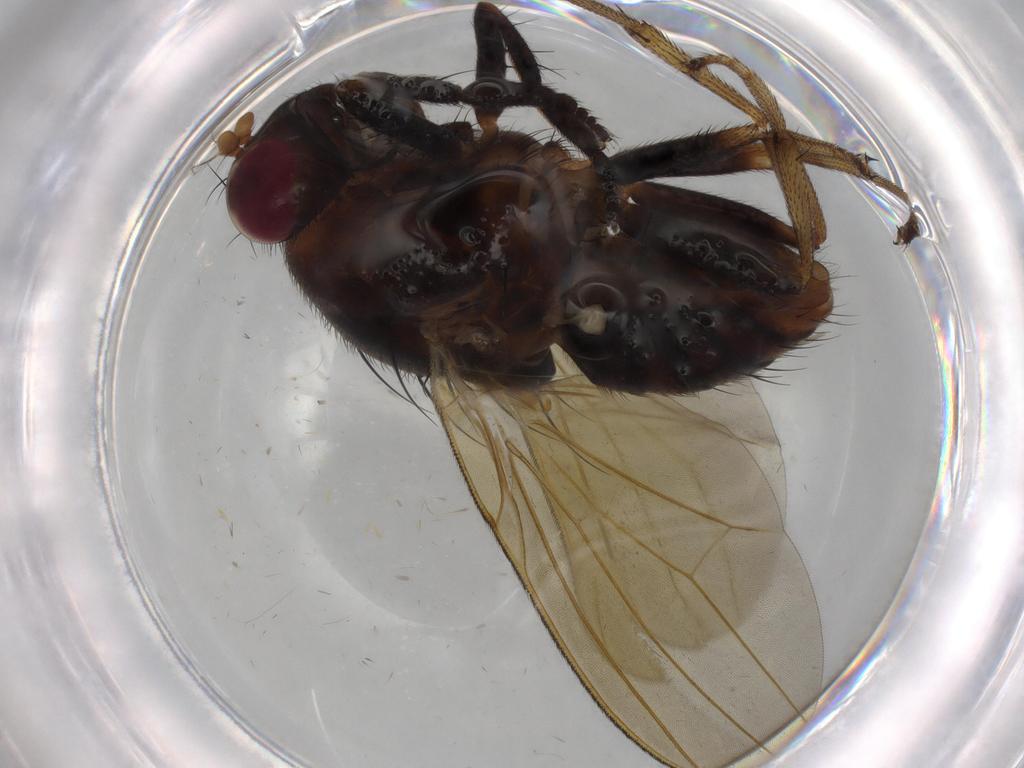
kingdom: Animalia
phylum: Arthropoda
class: Insecta
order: Diptera
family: Lauxaniidae
